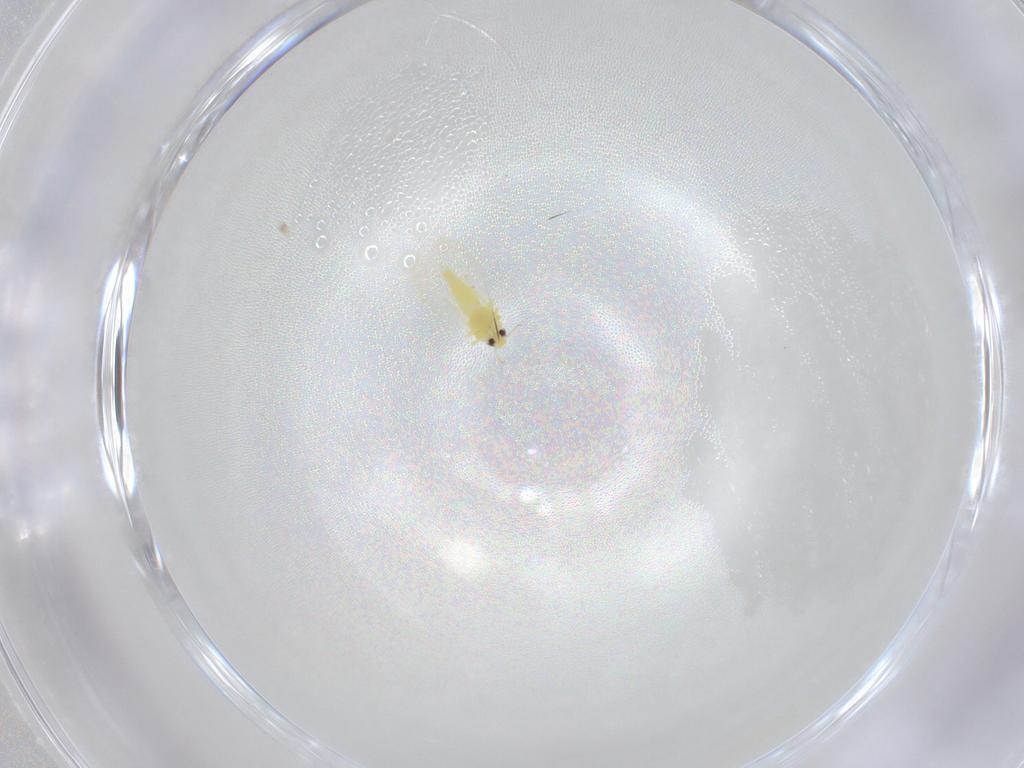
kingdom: Animalia
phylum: Arthropoda
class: Insecta
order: Hemiptera
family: Aleyrodidae
